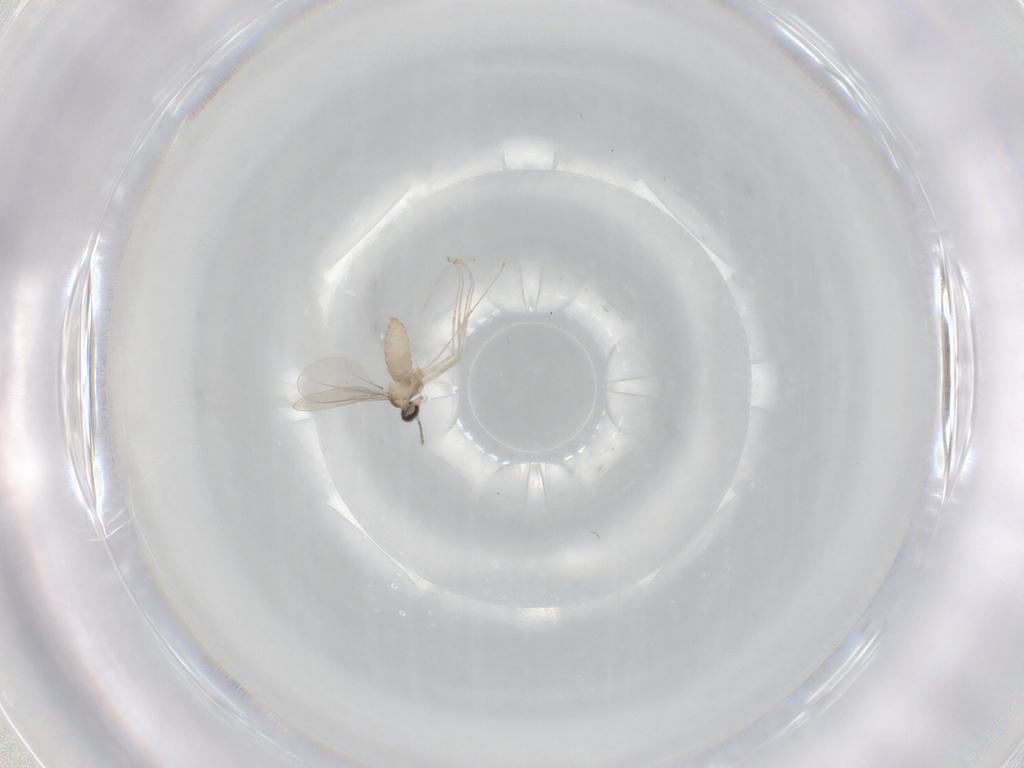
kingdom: Animalia
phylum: Arthropoda
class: Insecta
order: Diptera
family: Cecidomyiidae
